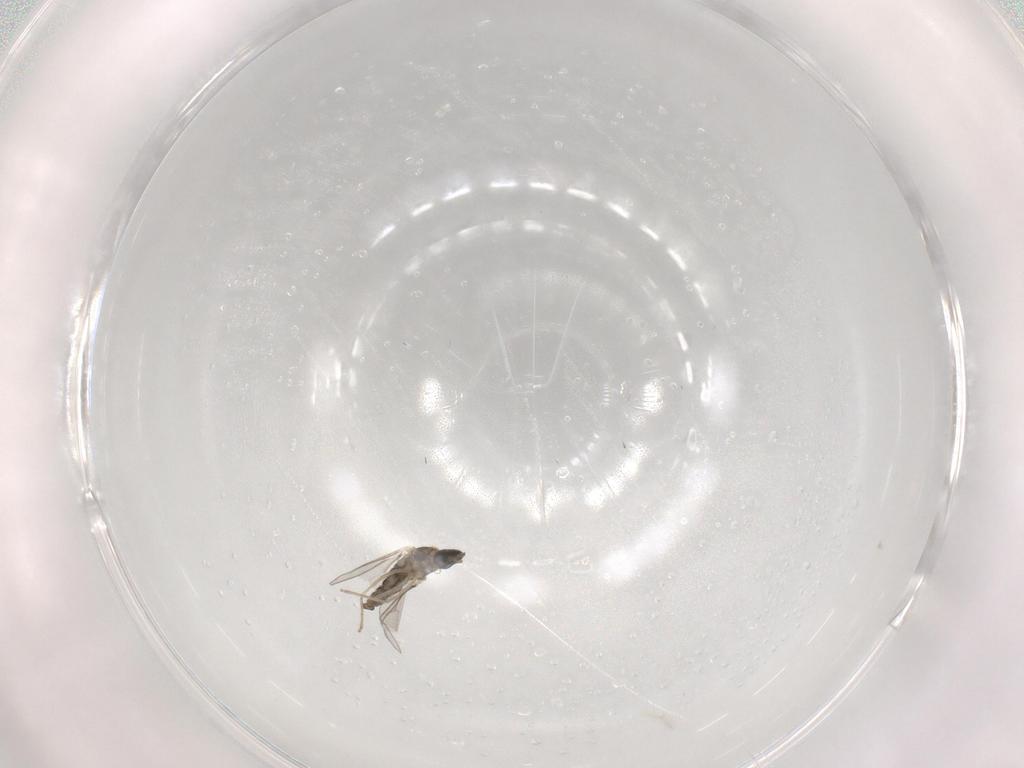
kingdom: Animalia
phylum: Arthropoda
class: Insecta
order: Diptera
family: Cecidomyiidae
